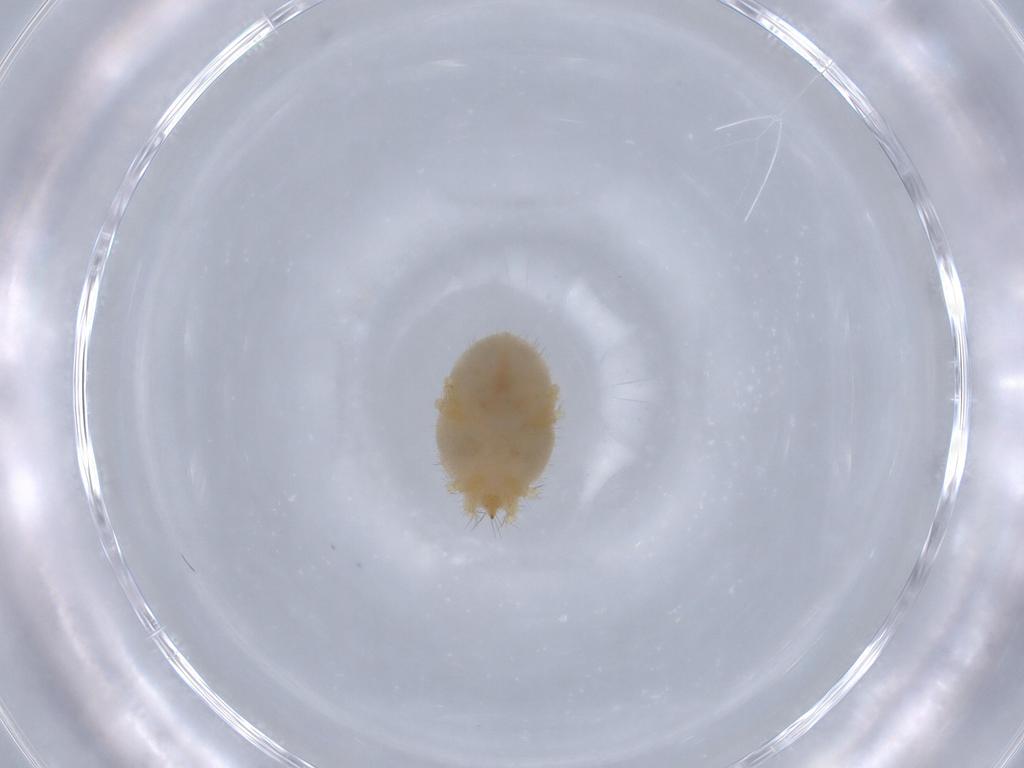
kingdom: Animalia
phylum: Arthropoda
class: Arachnida
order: Trombidiformes
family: Erythraeidae
